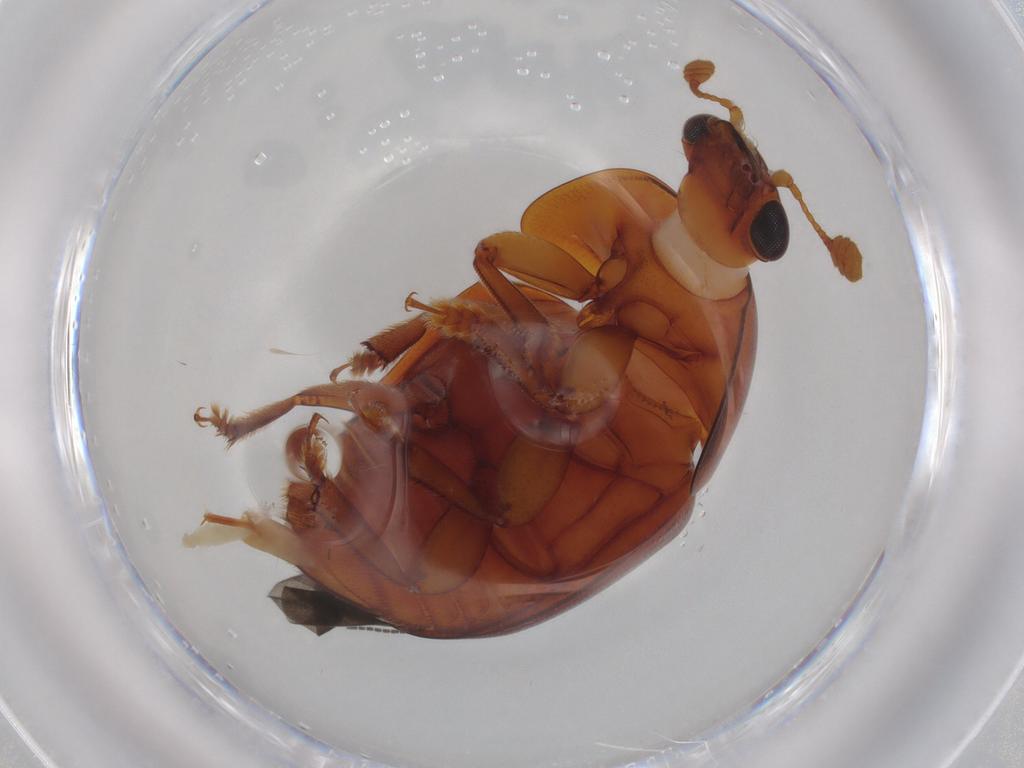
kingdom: Animalia
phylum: Arthropoda
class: Insecta
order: Coleoptera
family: Nitidulidae
